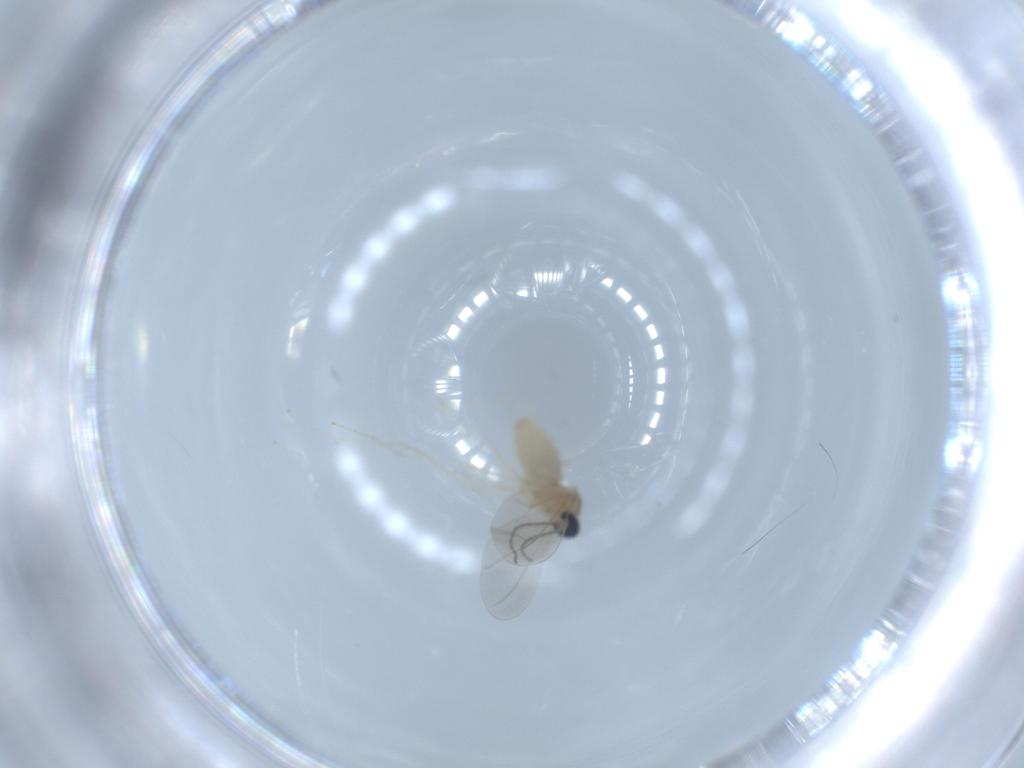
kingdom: Animalia
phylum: Arthropoda
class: Insecta
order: Diptera
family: Cecidomyiidae
